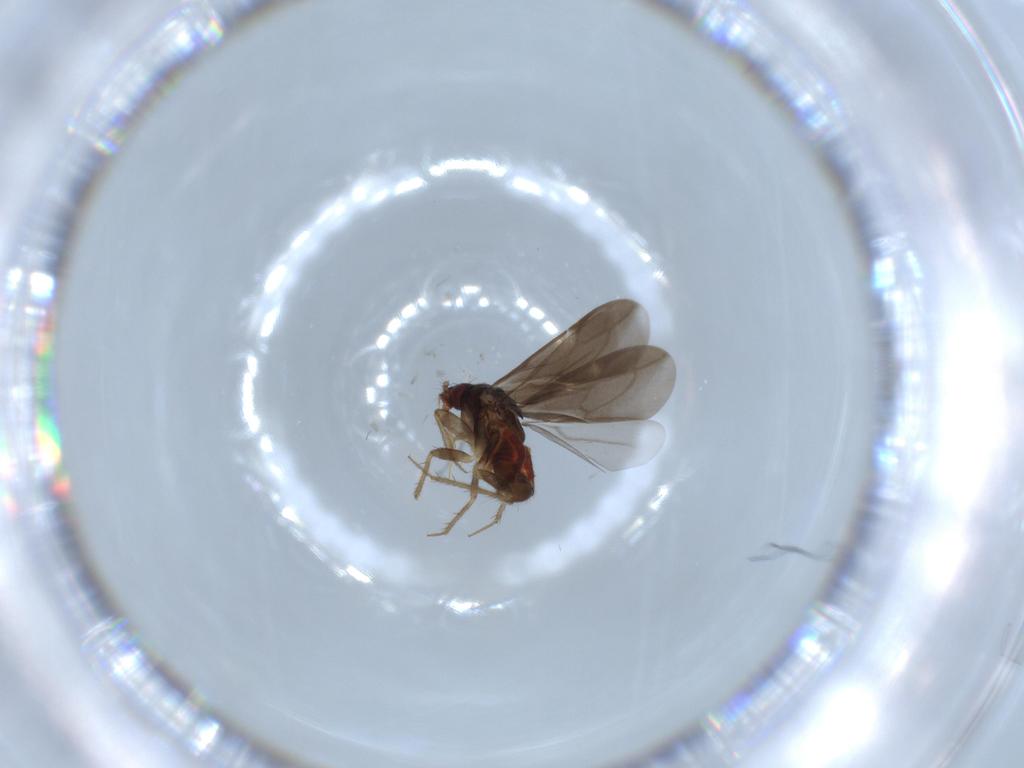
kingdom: Animalia
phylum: Arthropoda
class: Insecta
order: Hemiptera
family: Ceratocombidae
